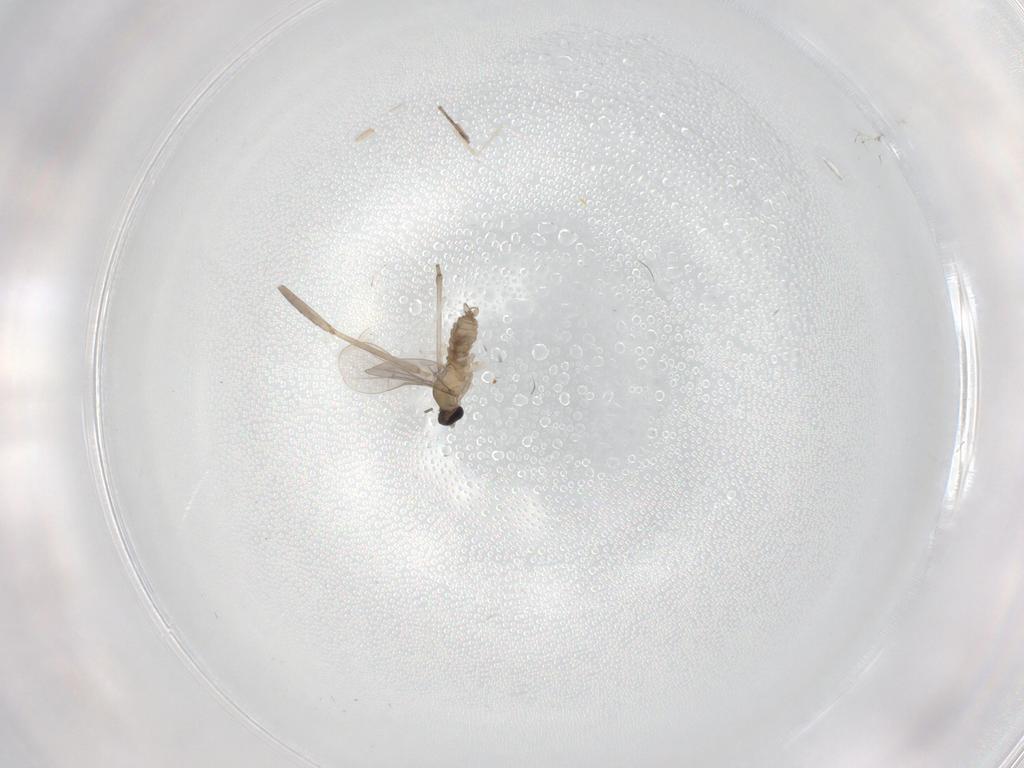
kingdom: Animalia
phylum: Arthropoda
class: Insecta
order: Diptera
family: Cecidomyiidae
